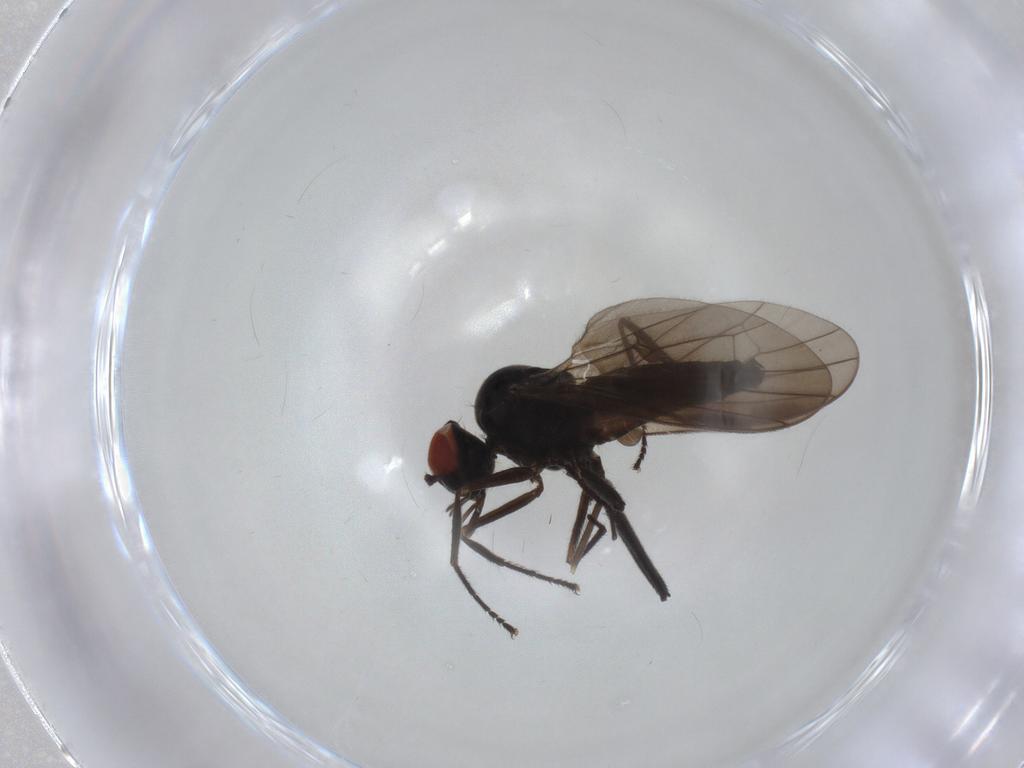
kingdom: Animalia
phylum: Arthropoda
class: Insecta
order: Diptera
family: Hybotidae
